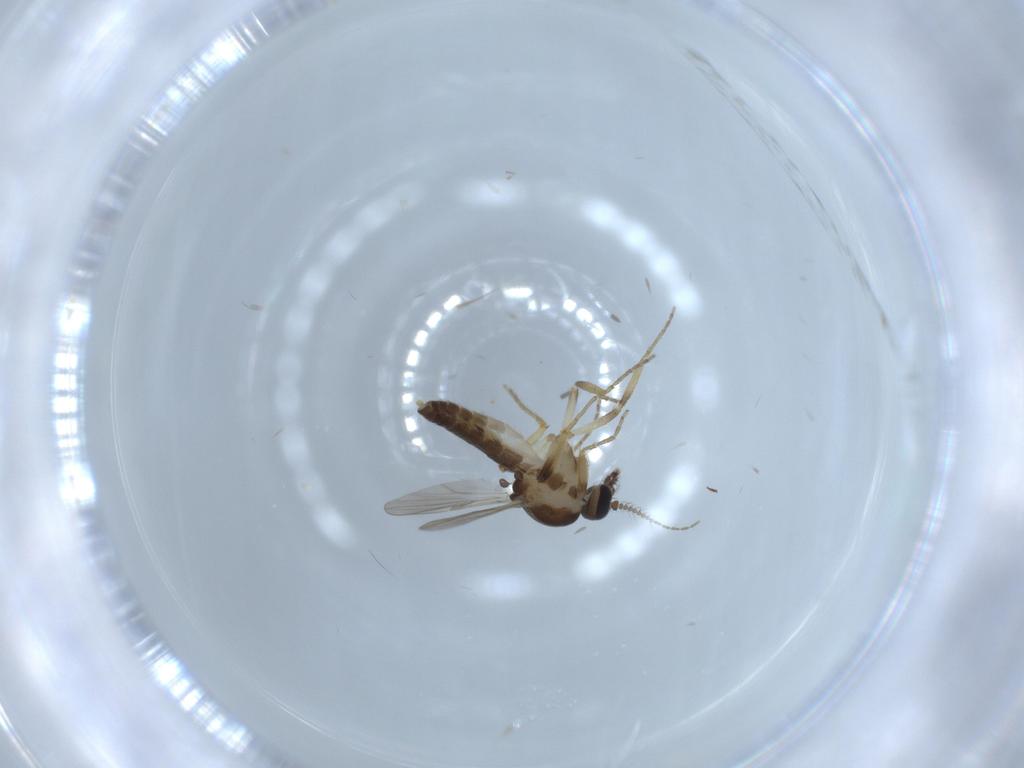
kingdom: Animalia
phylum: Arthropoda
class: Insecta
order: Diptera
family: Ceratopogonidae
